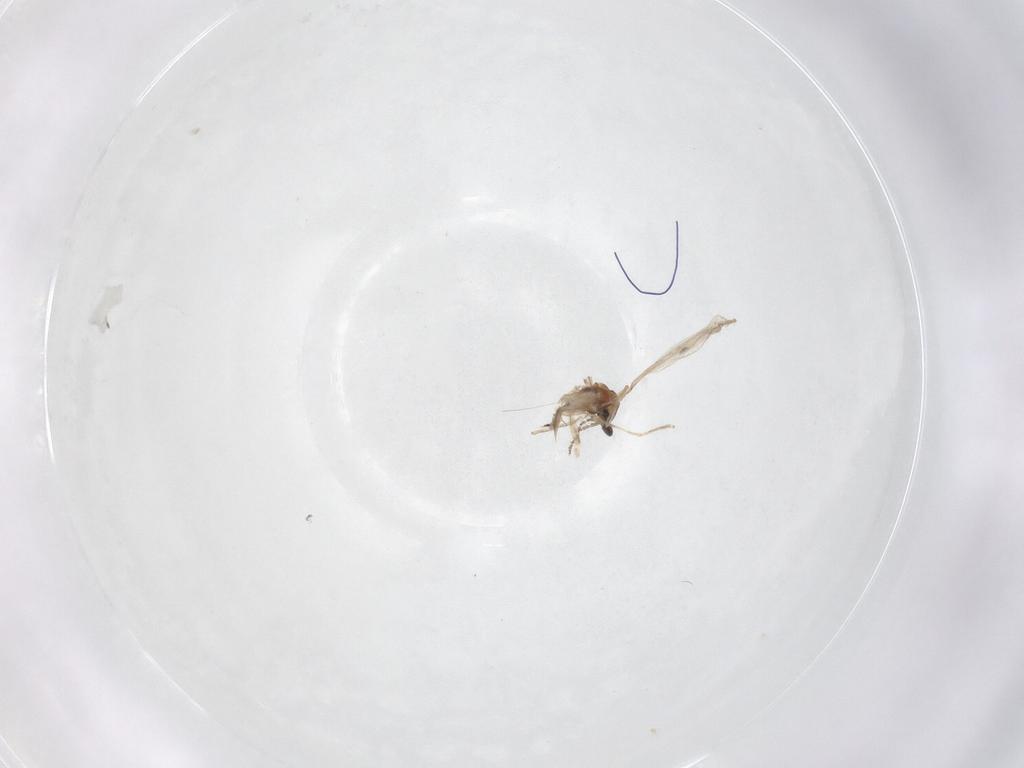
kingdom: Animalia
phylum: Arthropoda
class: Insecta
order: Diptera
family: Cecidomyiidae
